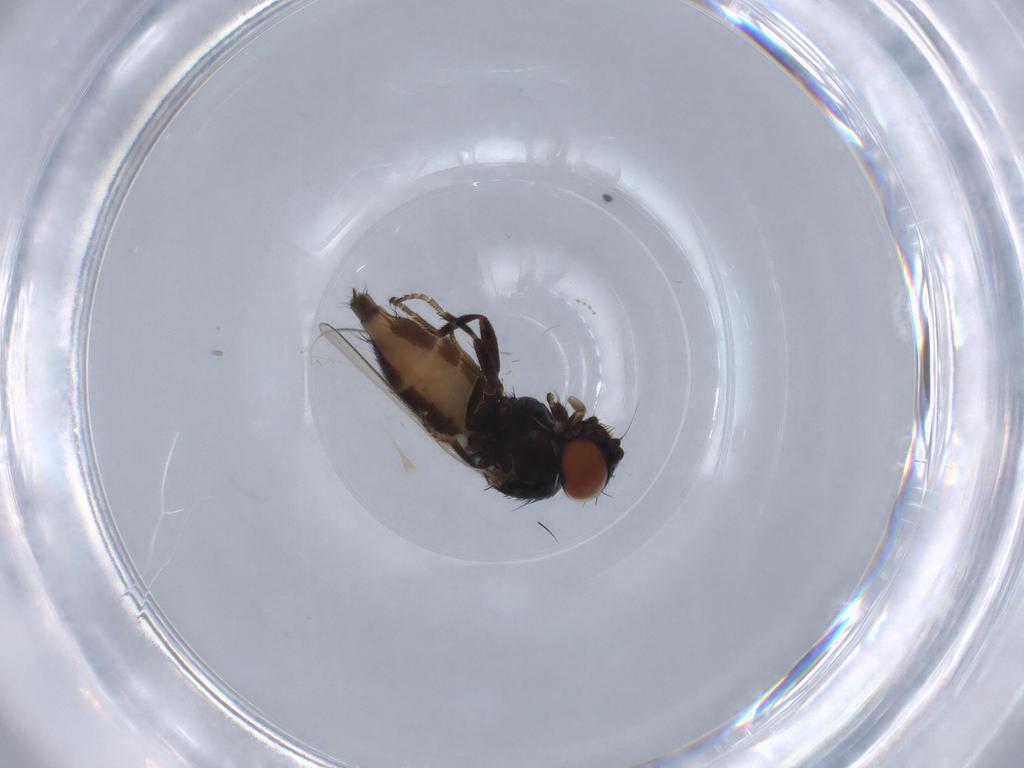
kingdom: Animalia
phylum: Arthropoda
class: Insecta
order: Diptera
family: Milichiidae
